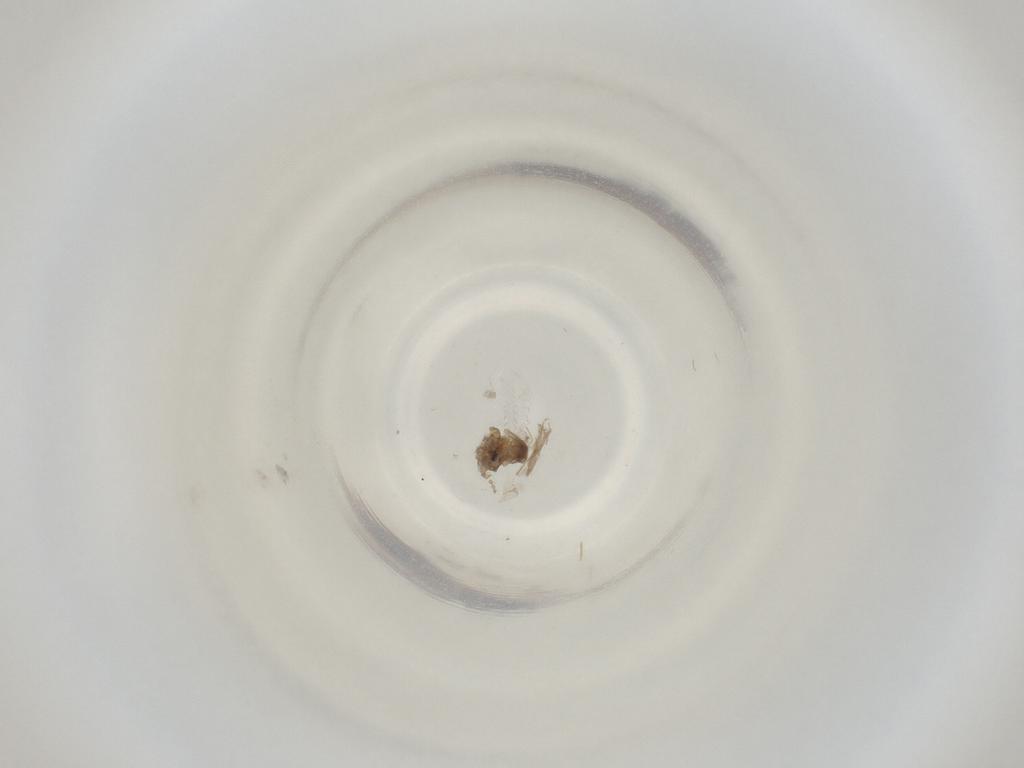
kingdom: Animalia
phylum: Arthropoda
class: Insecta
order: Diptera
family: Cecidomyiidae
